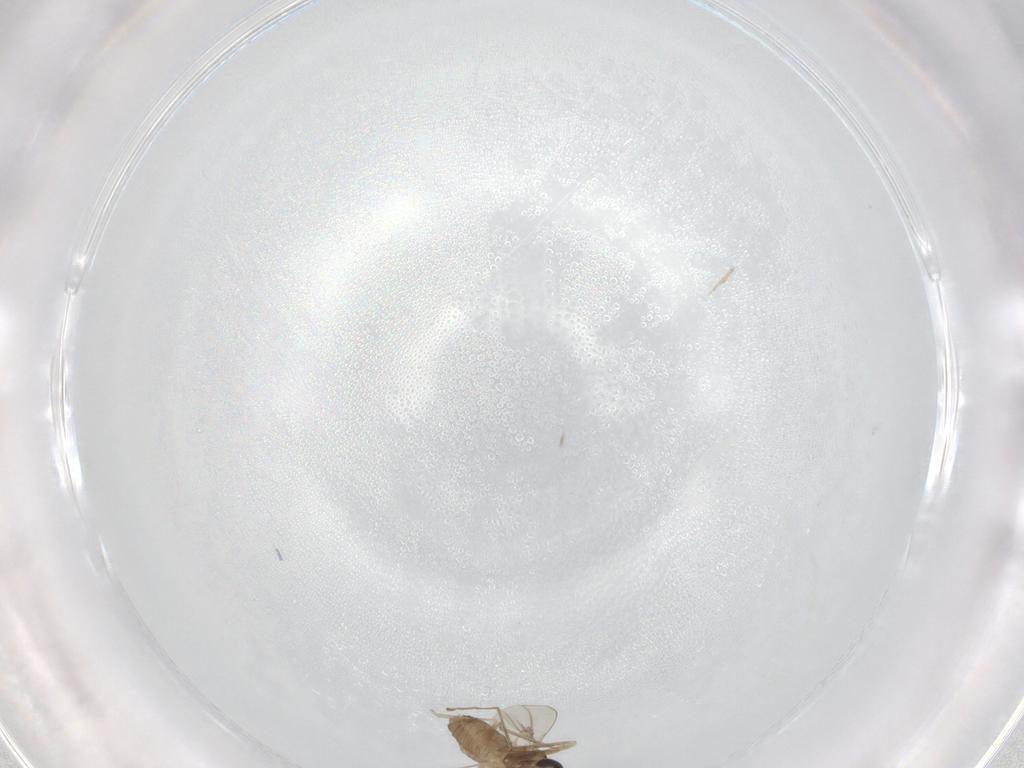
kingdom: Animalia
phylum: Arthropoda
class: Insecta
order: Diptera
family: Cecidomyiidae
